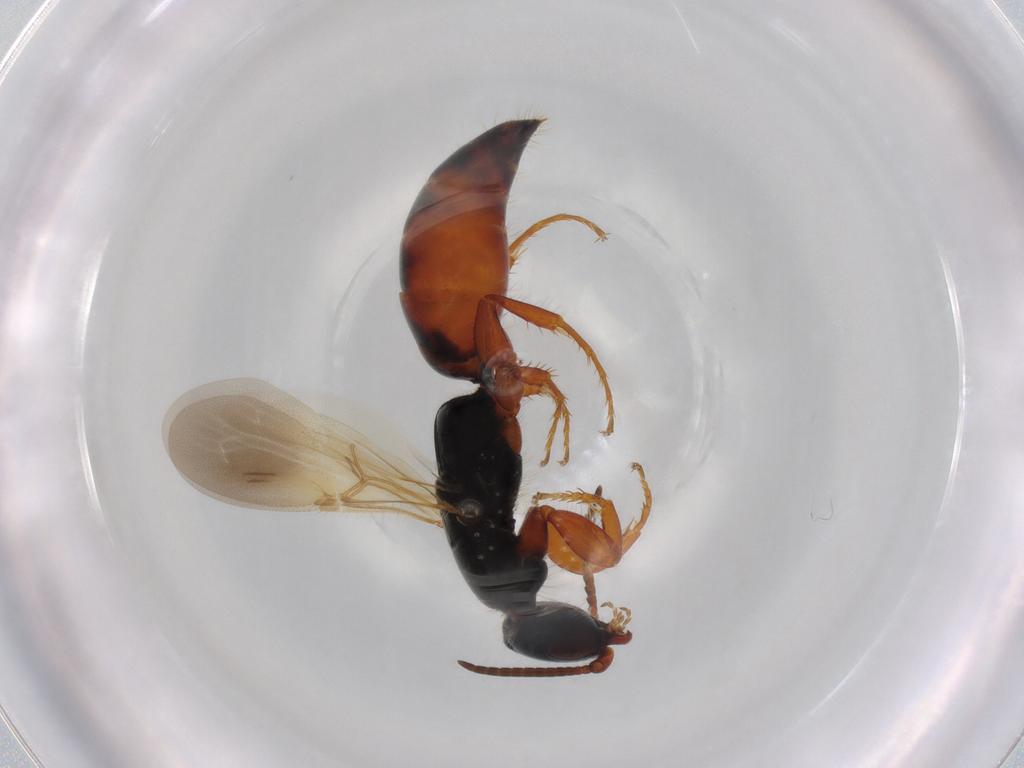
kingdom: Animalia
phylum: Arthropoda
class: Insecta
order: Hymenoptera
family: Bethylidae
